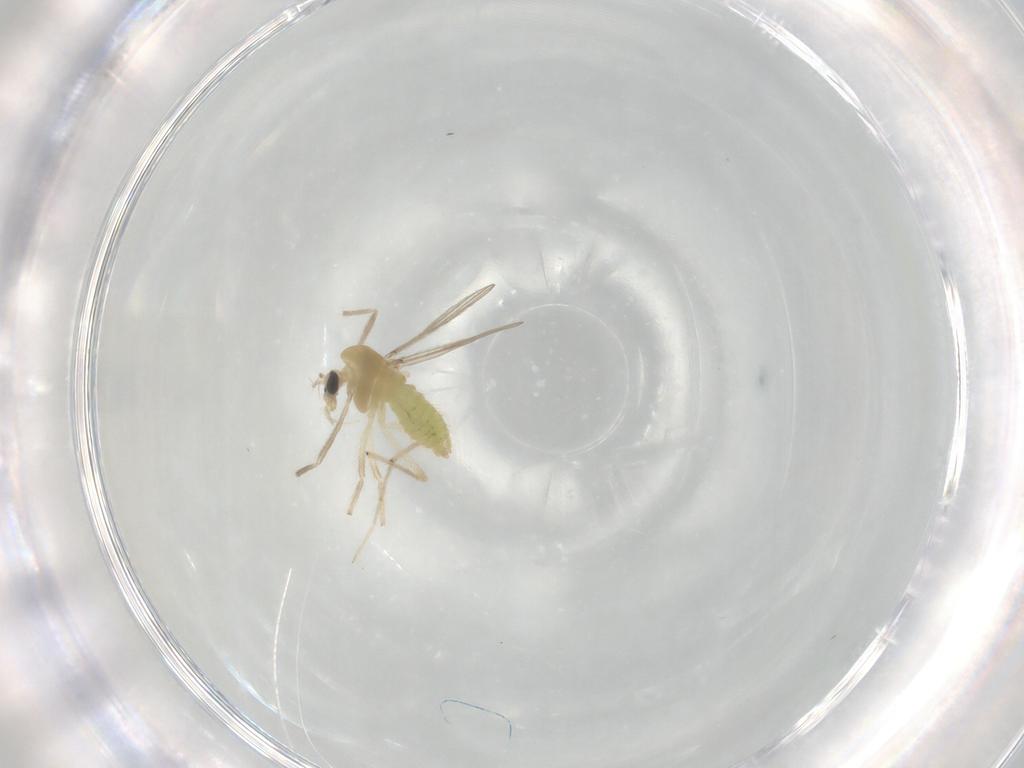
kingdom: Animalia
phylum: Arthropoda
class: Insecta
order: Diptera
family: Chironomidae
